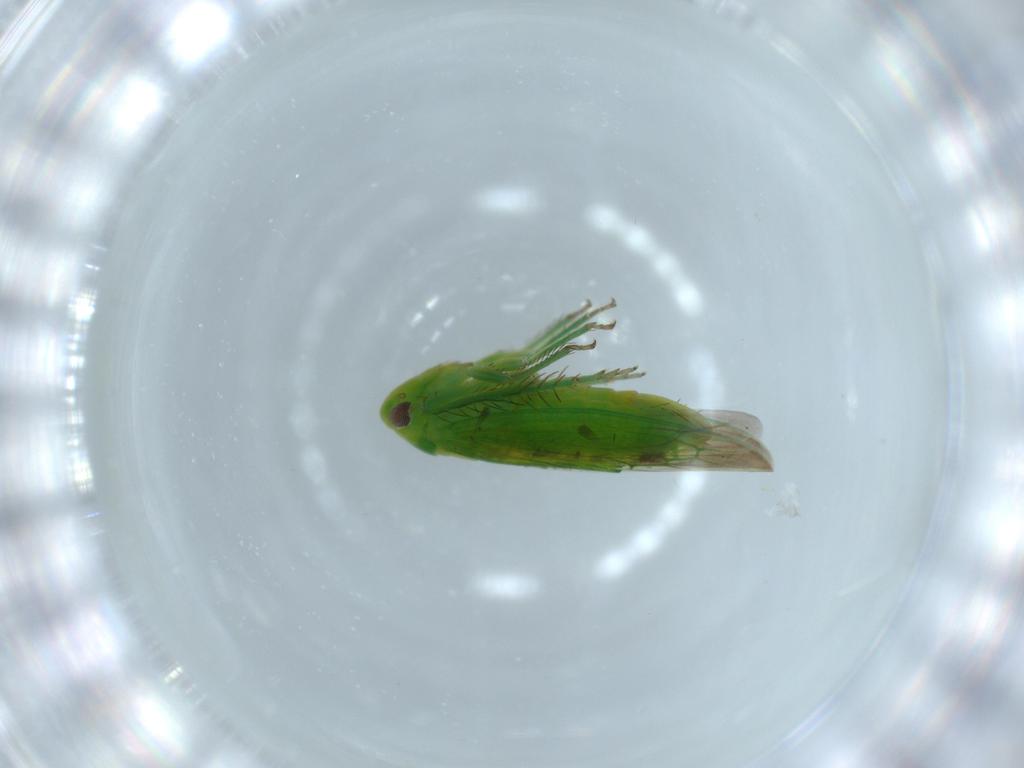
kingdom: Animalia
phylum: Arthropoda
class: Insecta
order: Hemiptera
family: Cicadellidae
